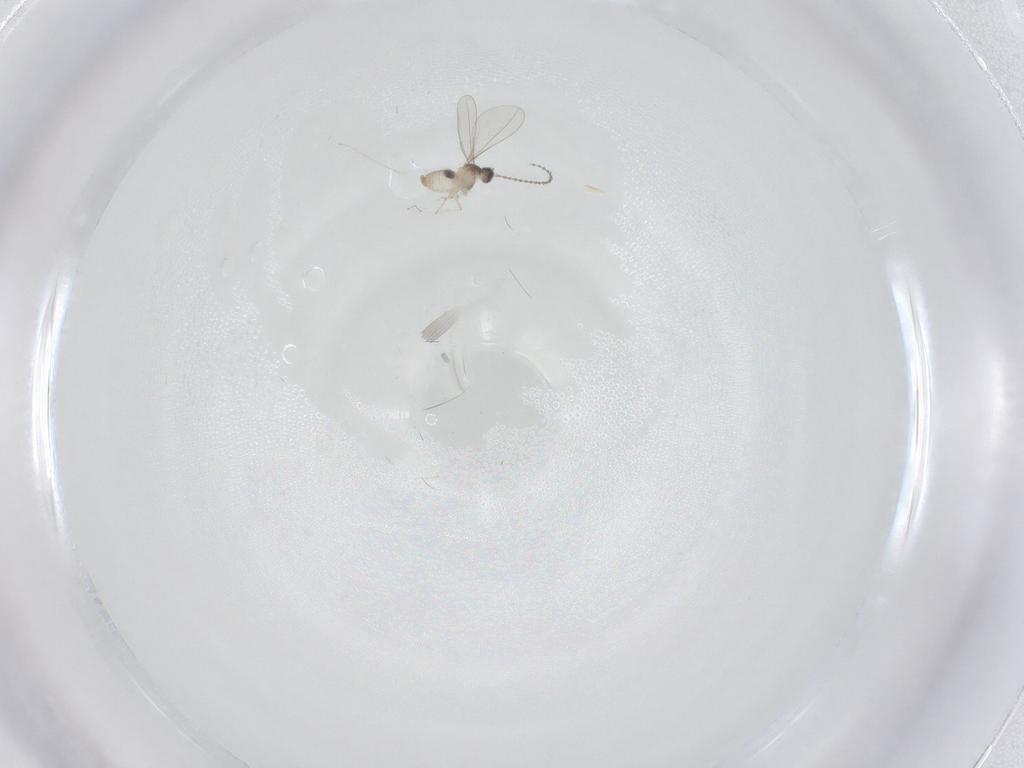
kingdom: Animalia
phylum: Arthropoda
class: Insecta
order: Diptera
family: Cecidomyiidae
